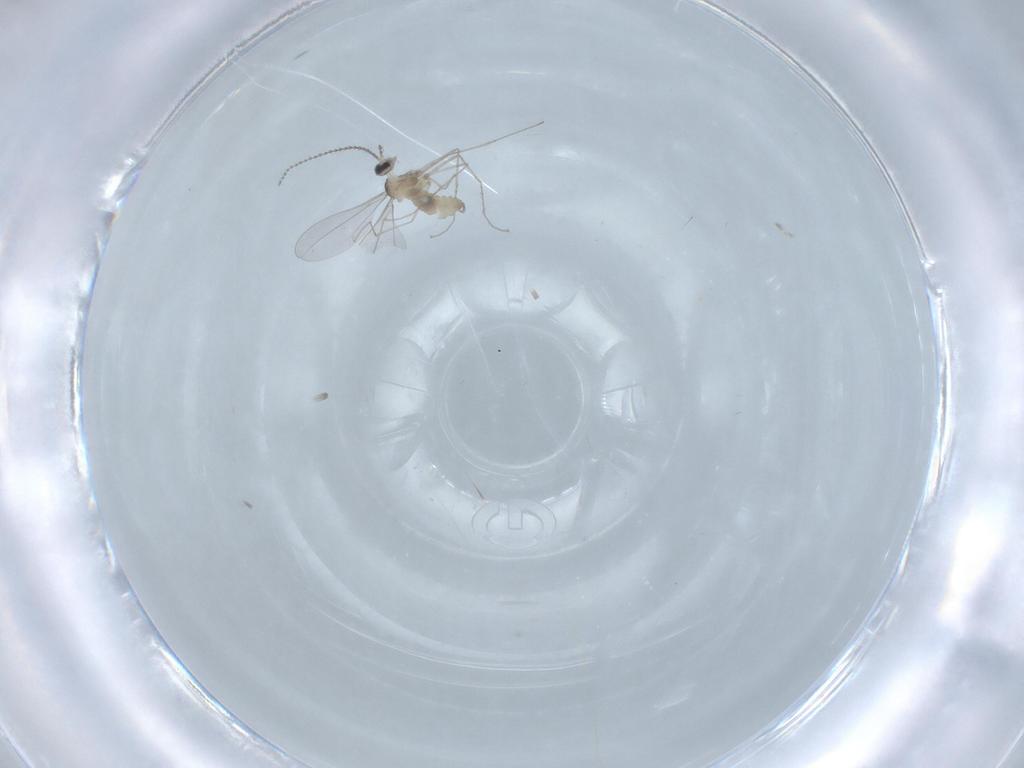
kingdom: Animalia
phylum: Arthropoda
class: Insecta
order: Diptera
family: Cecidomyiidae
